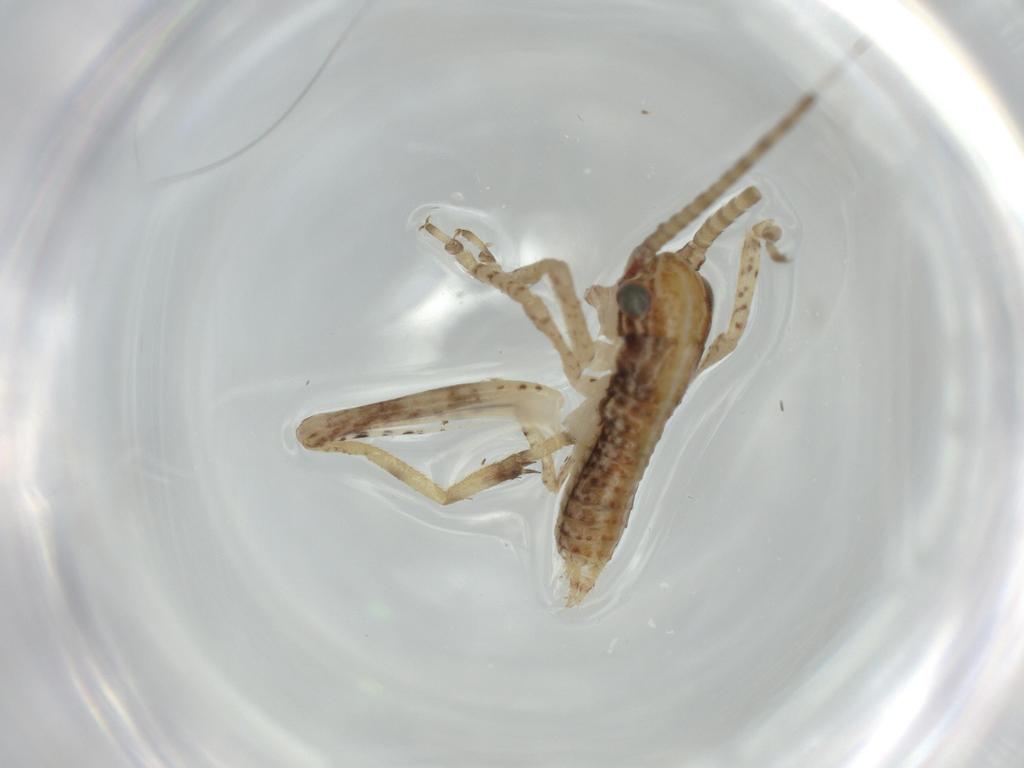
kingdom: Animalia
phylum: Arthropoda
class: Insecta
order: Orthoptera
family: Gryllidae
